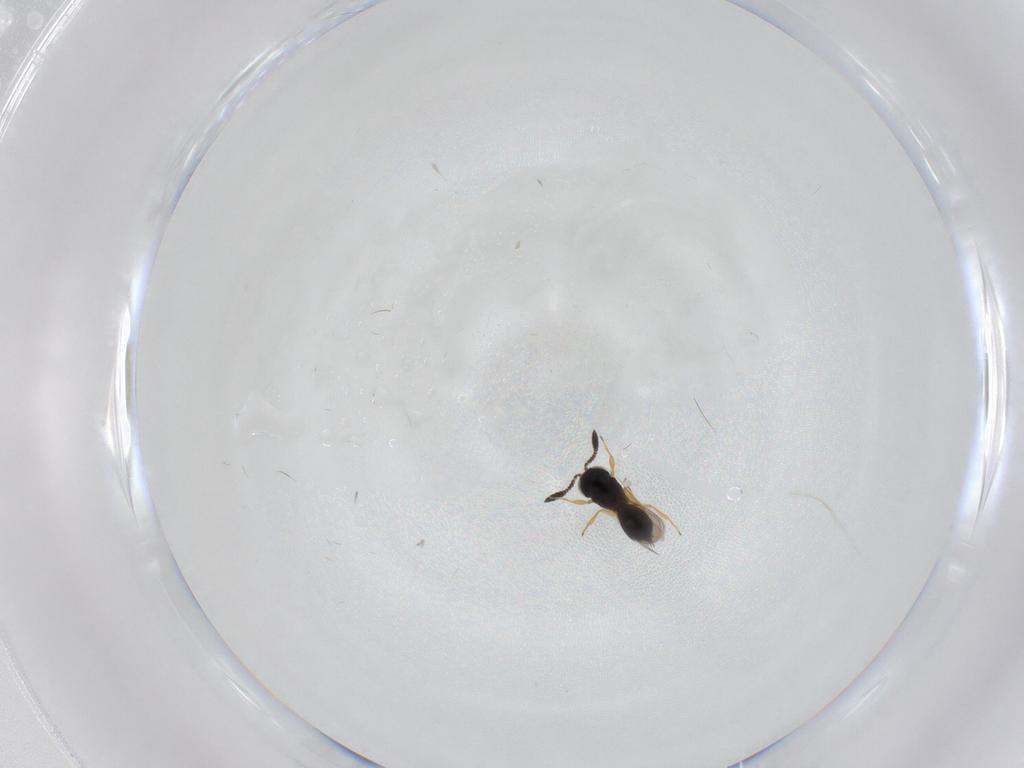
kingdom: Animalia
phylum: Arthropoda
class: Insecta
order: Hymenoptera
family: Scelionidae
